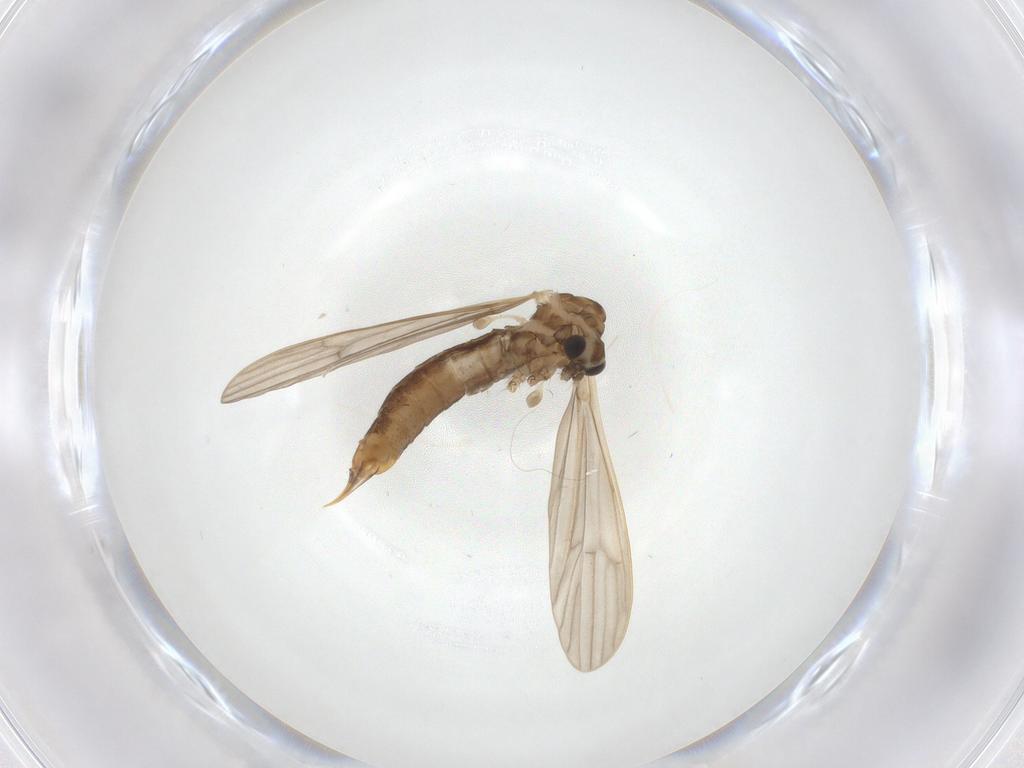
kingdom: Animalia
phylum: Arthropoda
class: Insecta
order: Diptera
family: Limoniidae
